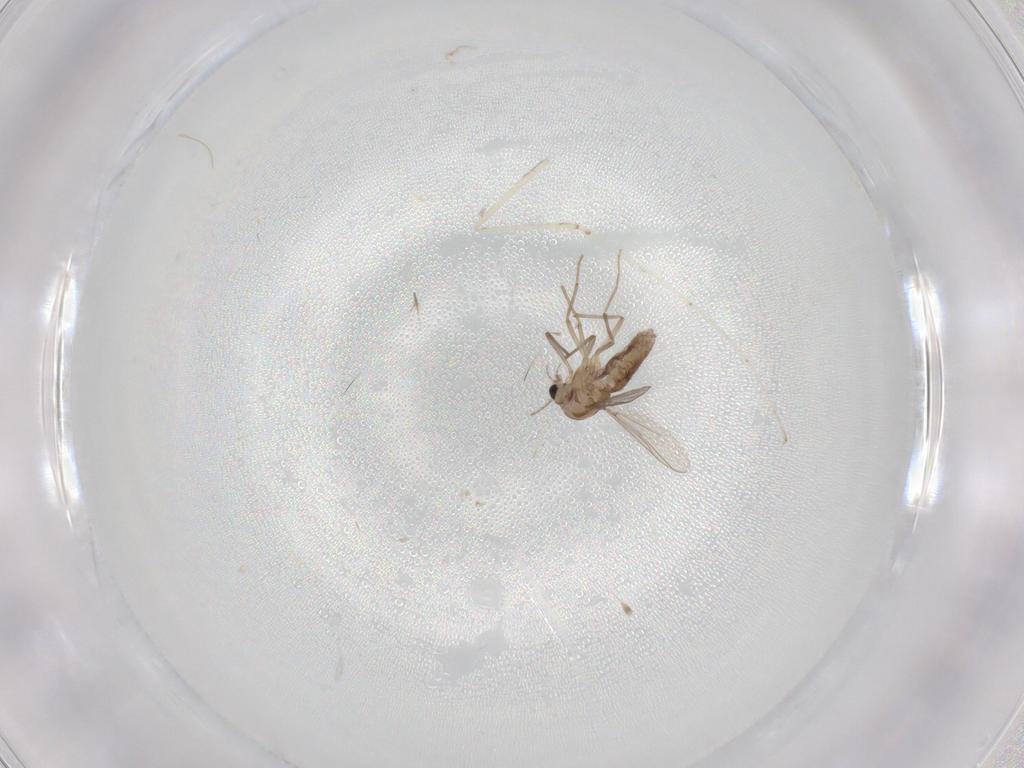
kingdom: Animalia
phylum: Arthropoda
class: Insecta
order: Diptera
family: Chironomidae
